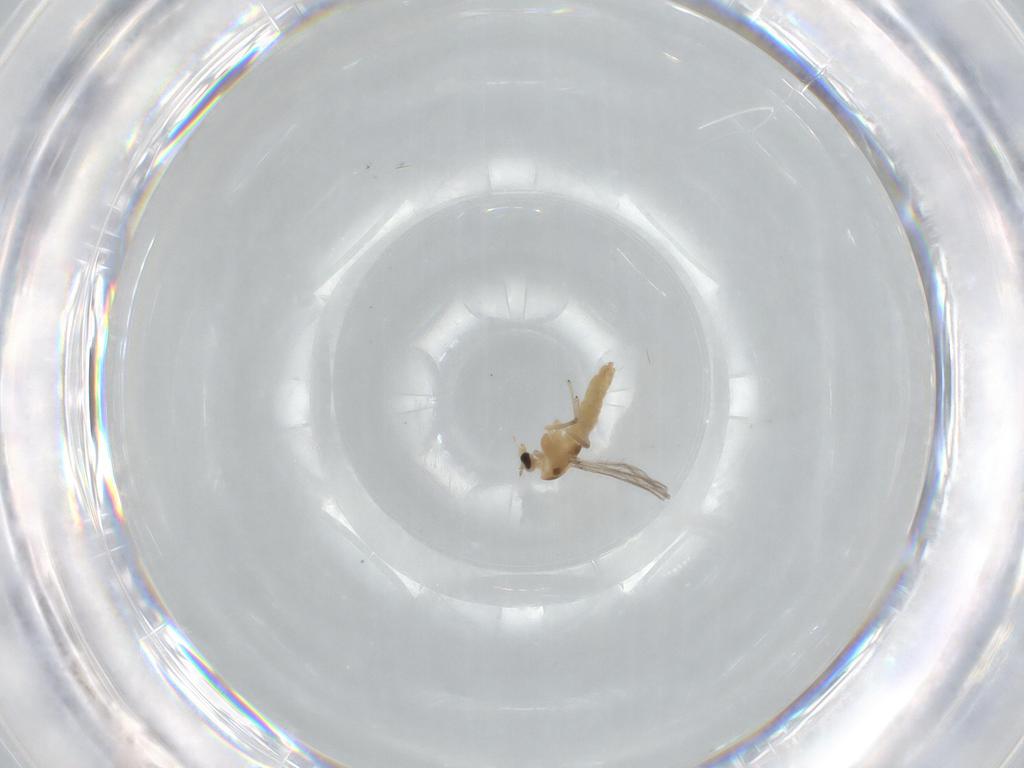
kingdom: Animalia
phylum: Arthropoda
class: Insecta
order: Diptera
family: Chironomidae
